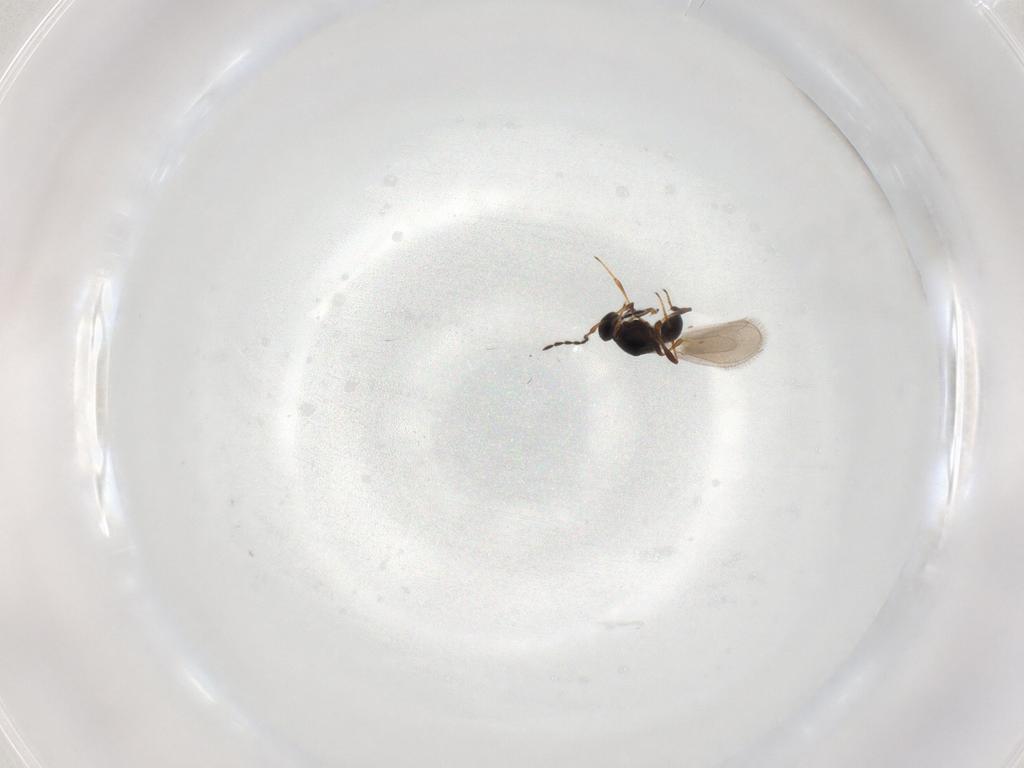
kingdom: Animalia
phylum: Arthropoda
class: Insecta
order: Hymenoptera
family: Platygastridae
